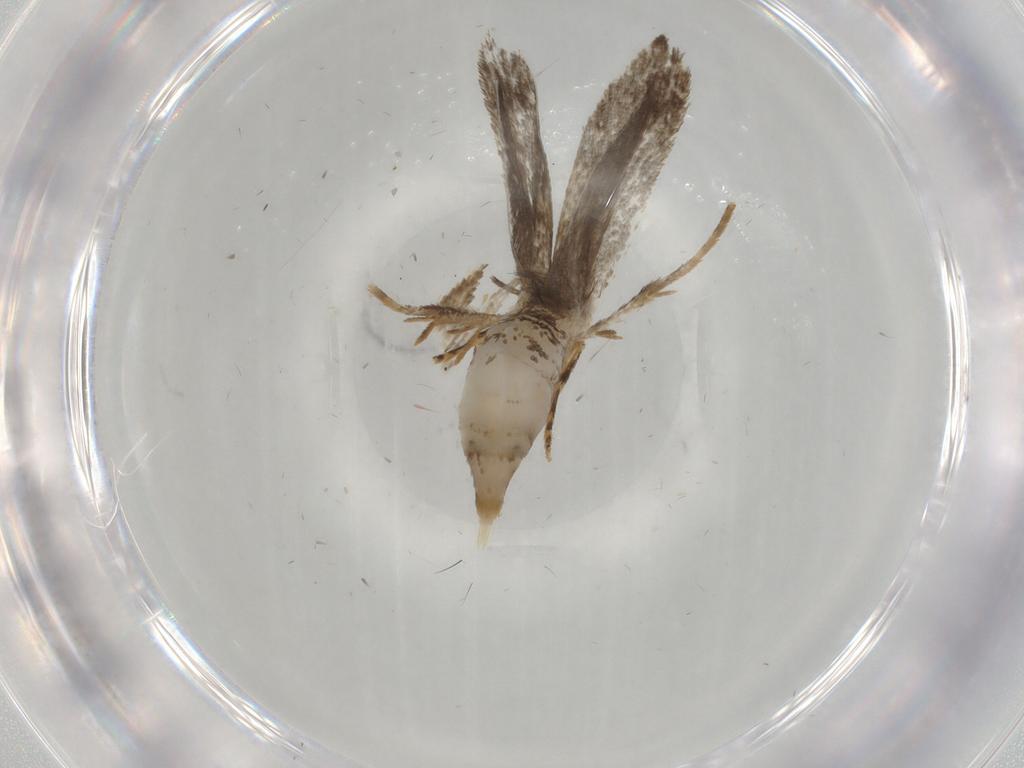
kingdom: Animalia
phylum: Arthropoda
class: Insecta
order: Lepidoptera
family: Tineidae
